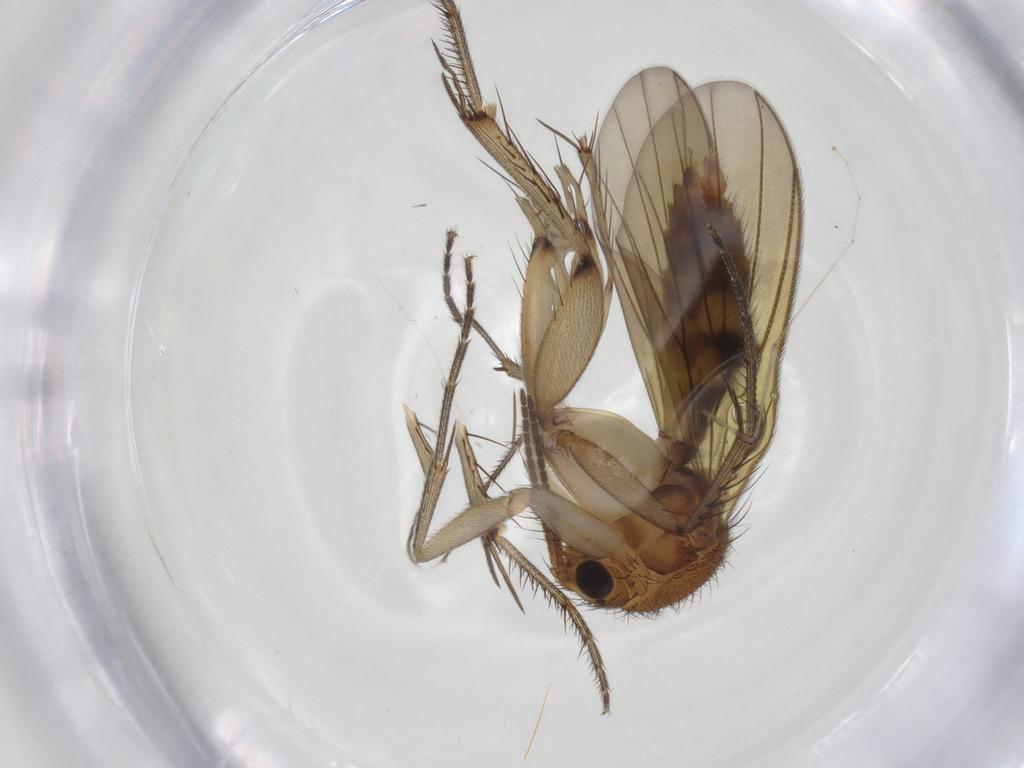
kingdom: Animalia
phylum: Arthropoda
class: Insecta
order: Diptera
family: Mycetophilidae
